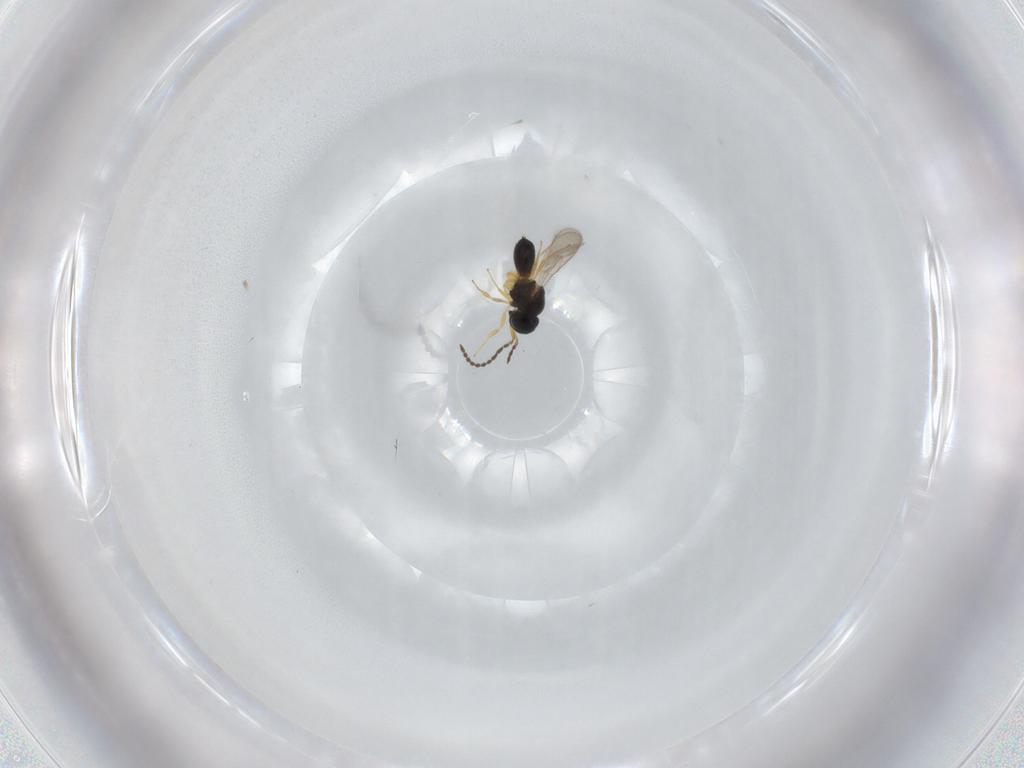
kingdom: Animalia
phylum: Arthropoda
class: Insecta
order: Hymenoptera
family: Scelionidae
